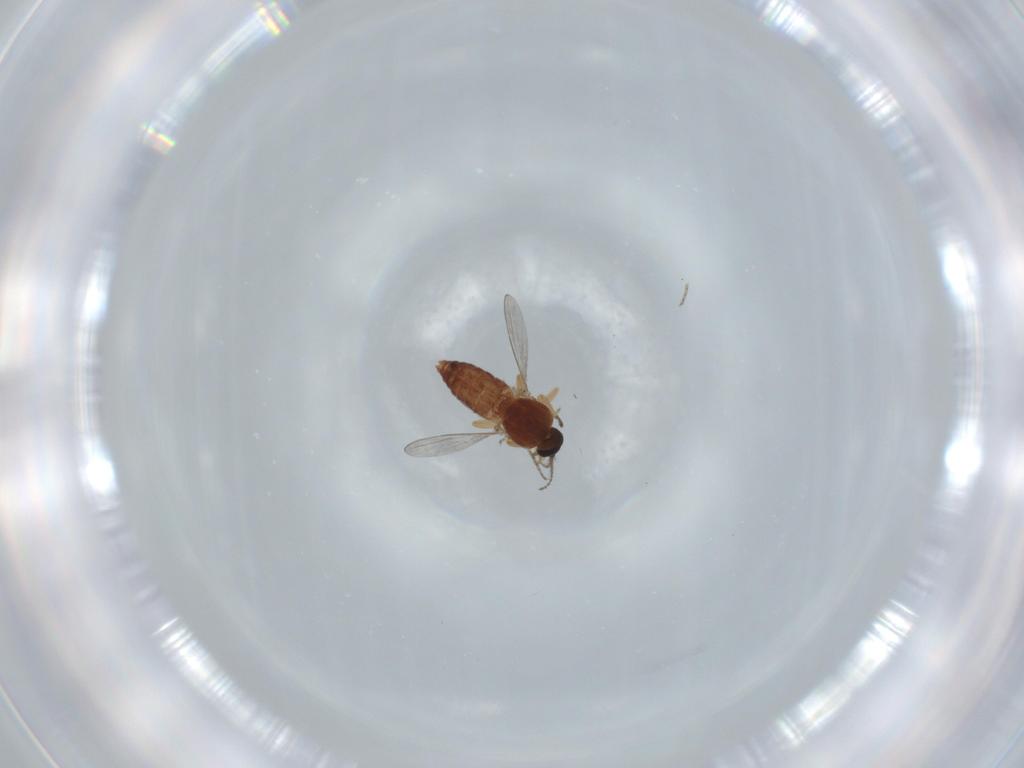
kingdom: Animalia
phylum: Arthropoda
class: Insecta
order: Diptera
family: Ceratopogonidae
